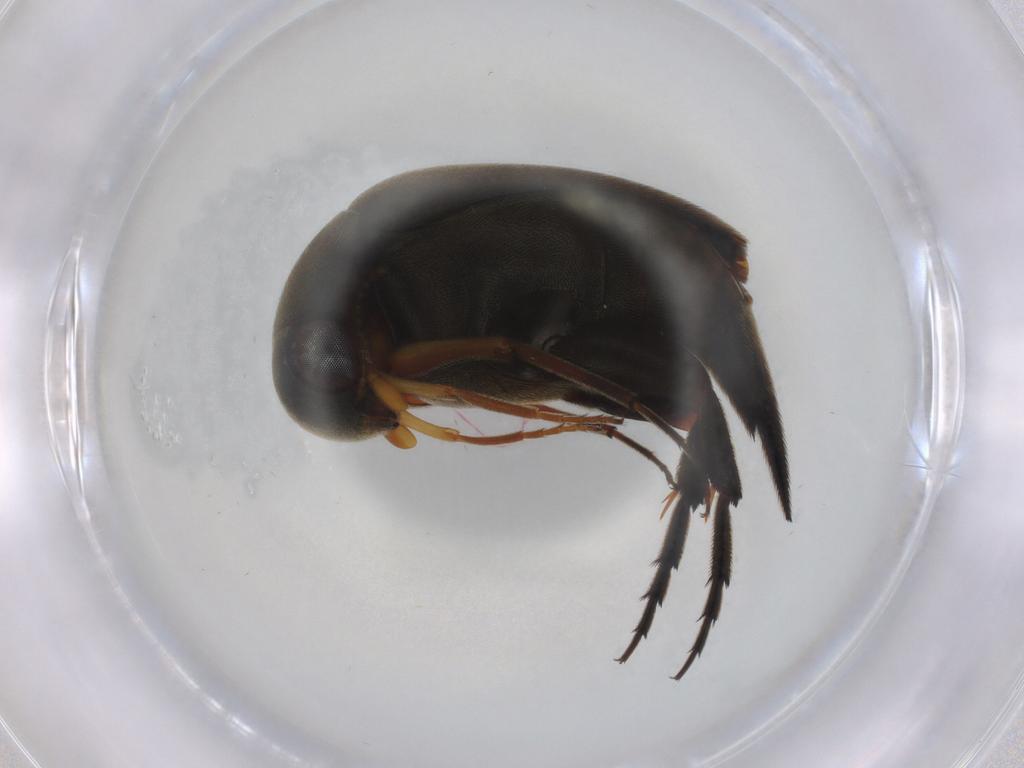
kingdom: Animalia
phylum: Arthropoda
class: Insecta
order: Coleoptera
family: Mordellidae
